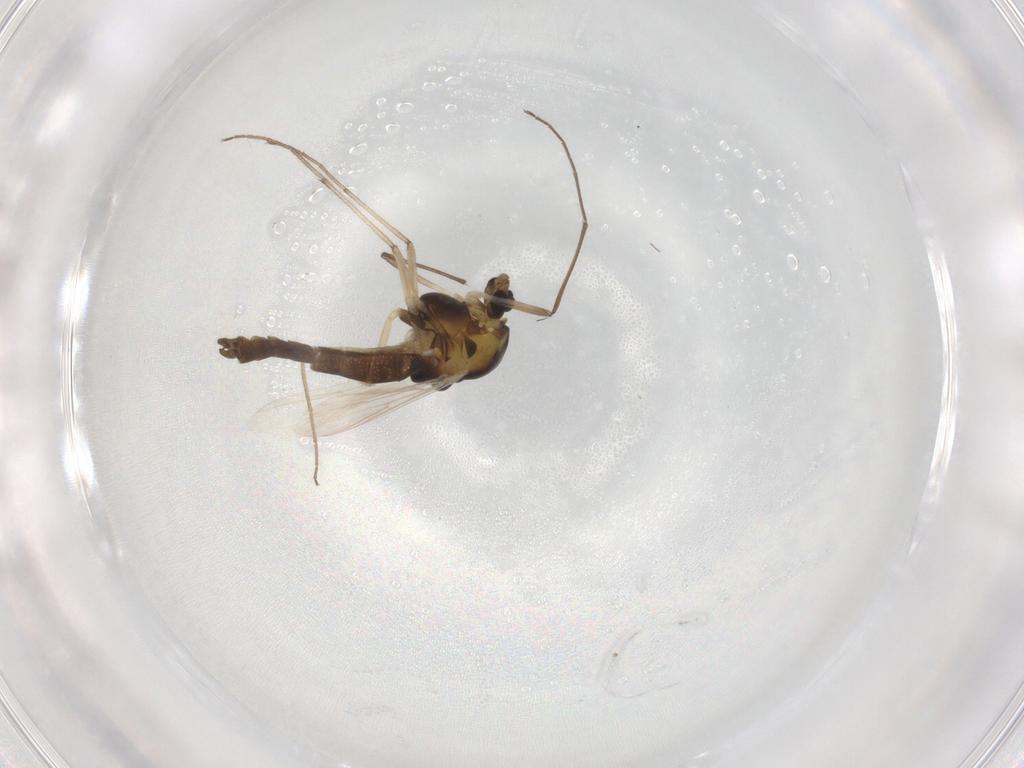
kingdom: Animalia
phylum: Arthropoda
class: Insecta
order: Diptera
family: Chironomidae
